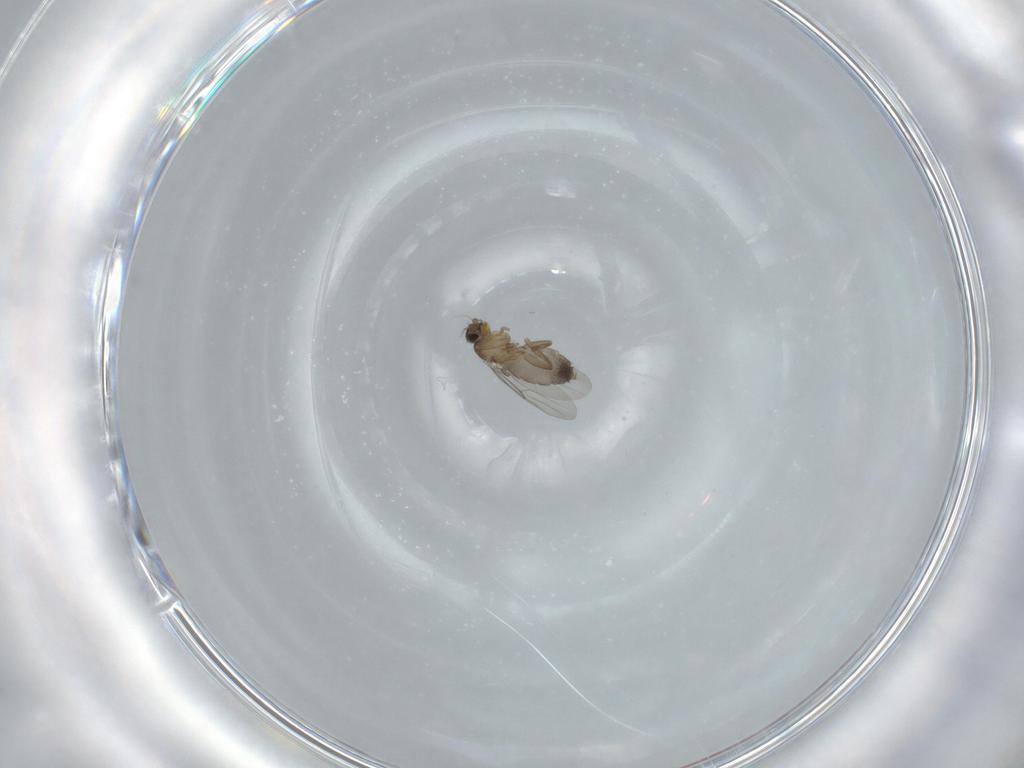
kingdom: Animalia
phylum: Arthropoda
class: Insecta
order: Diptera
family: Phoridae
